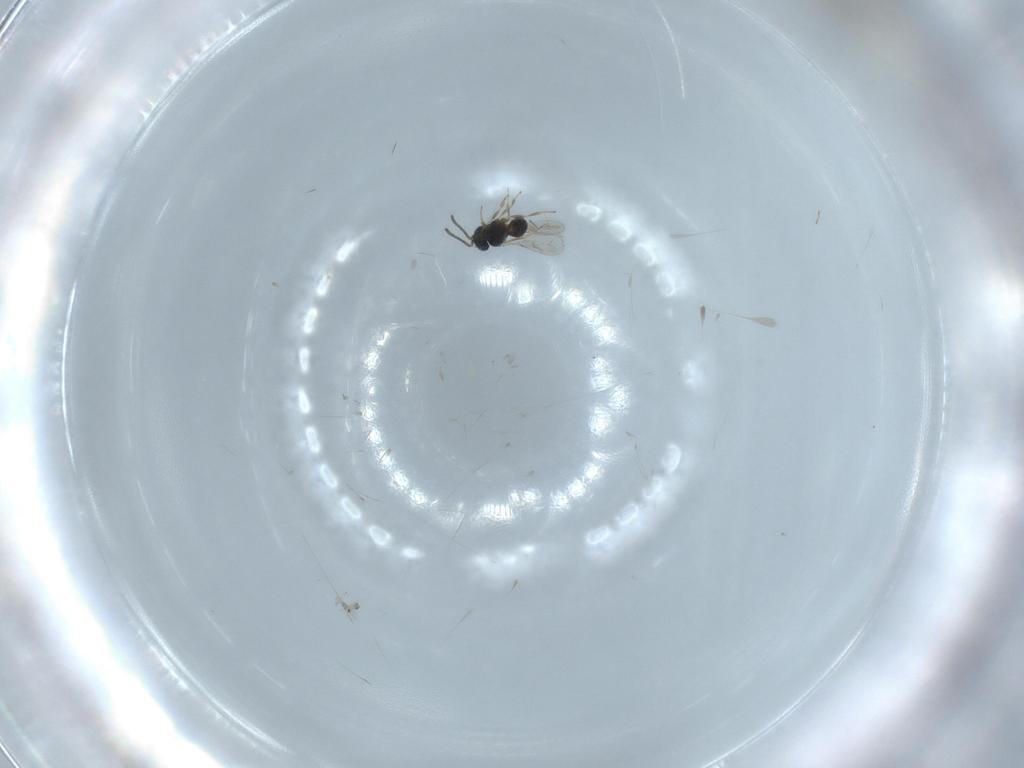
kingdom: Animalia
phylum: Arthropoda
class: Insecta
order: Hymenoptera
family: Scelionidae
